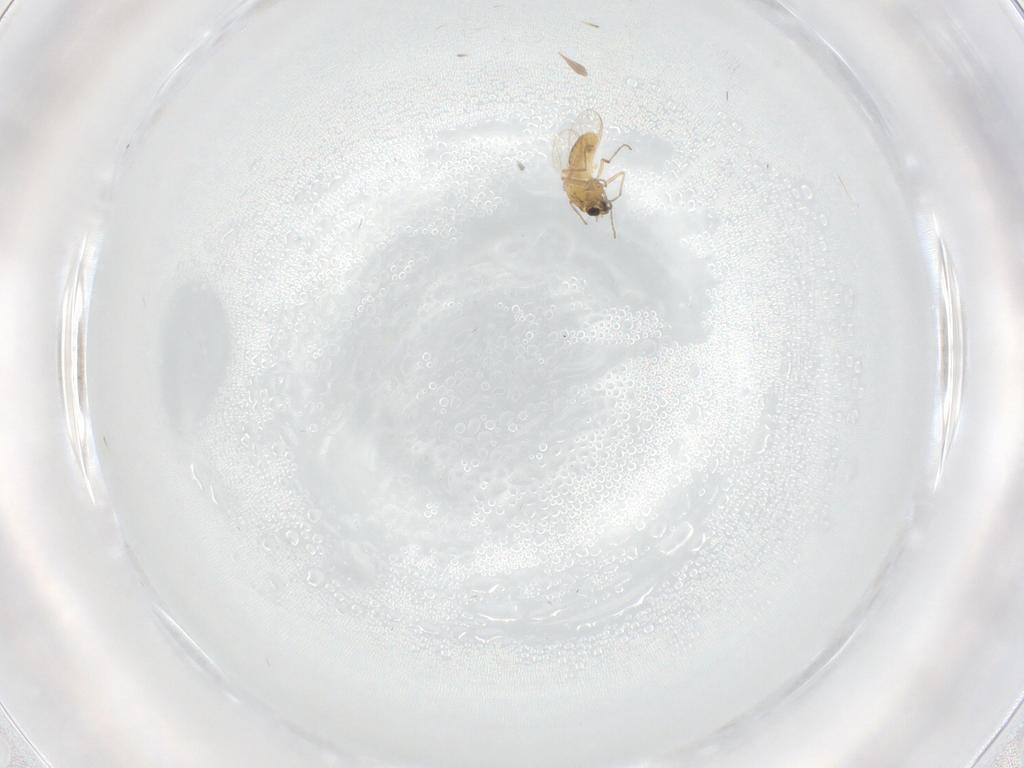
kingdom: Animalia
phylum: Arthropoda
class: Insecta
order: Diptera
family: Chironomidae
